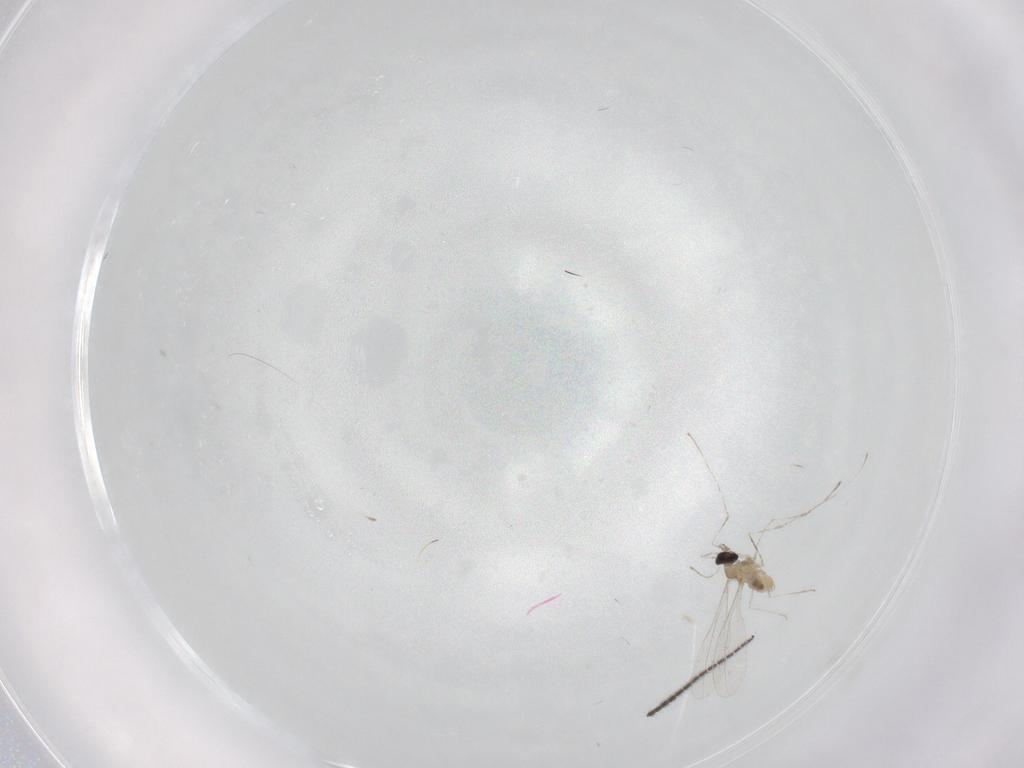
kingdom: Animalia
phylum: Arthropoda
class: Insecta
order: Diptera
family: Cecidomyiidae
